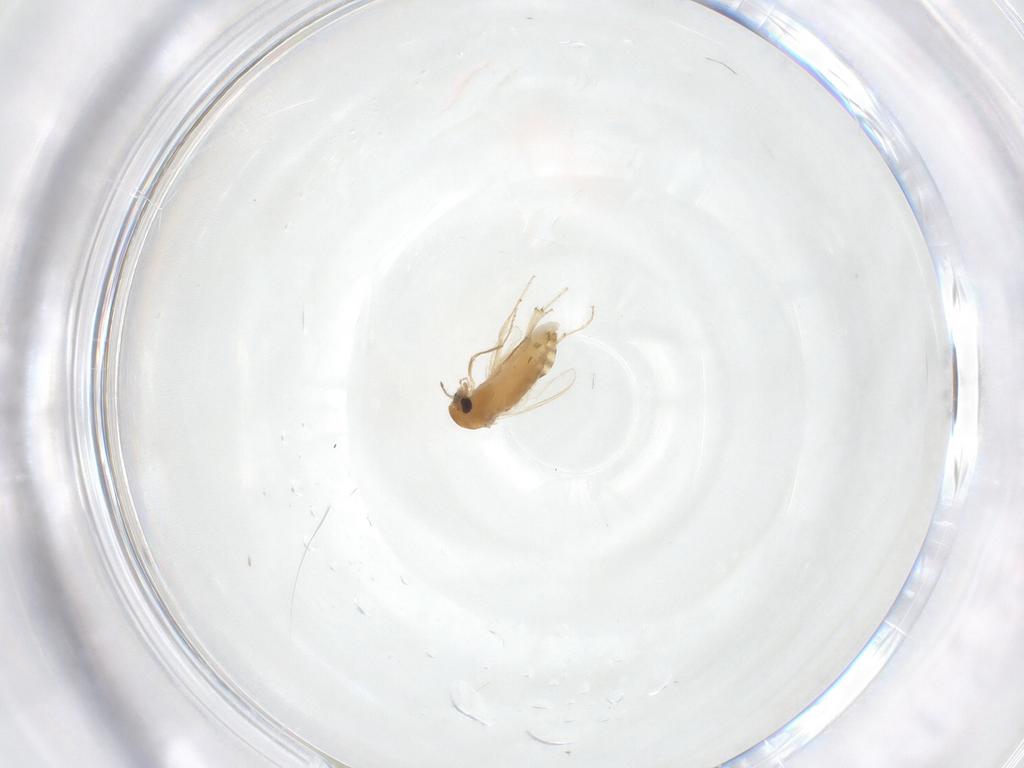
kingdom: Animalia
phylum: Arthropoda
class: Insecta
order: Diptera
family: Chironomidae
